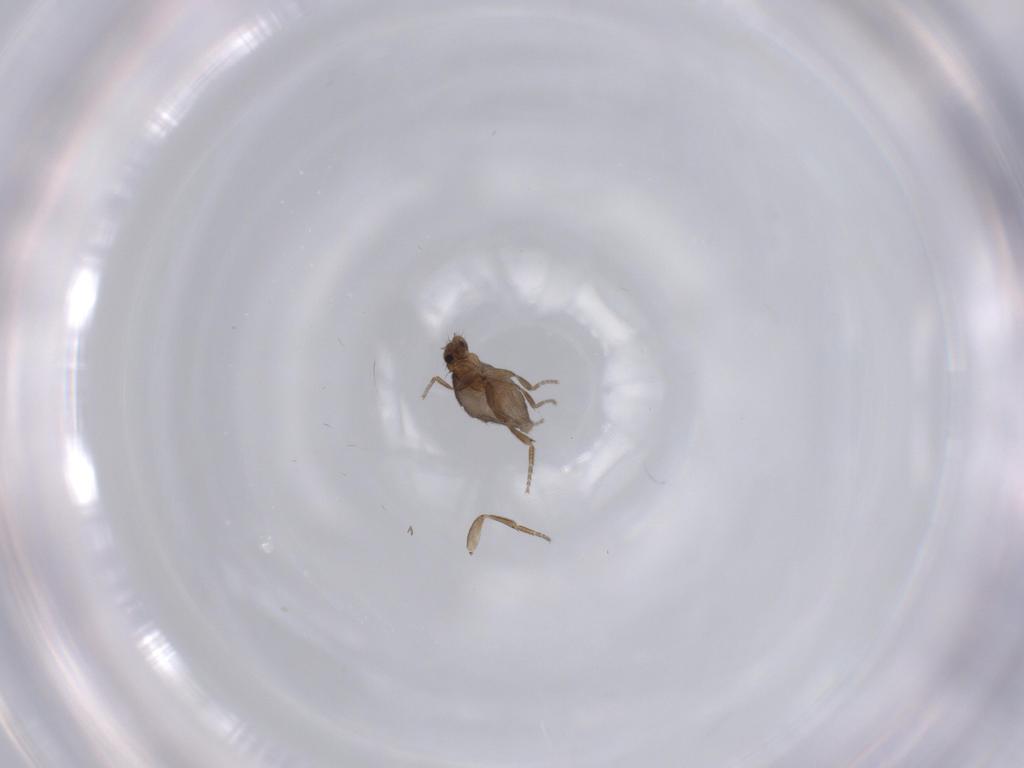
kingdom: Animalia
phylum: Arthropoda
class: Insecta
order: Diptera
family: Phoridae
